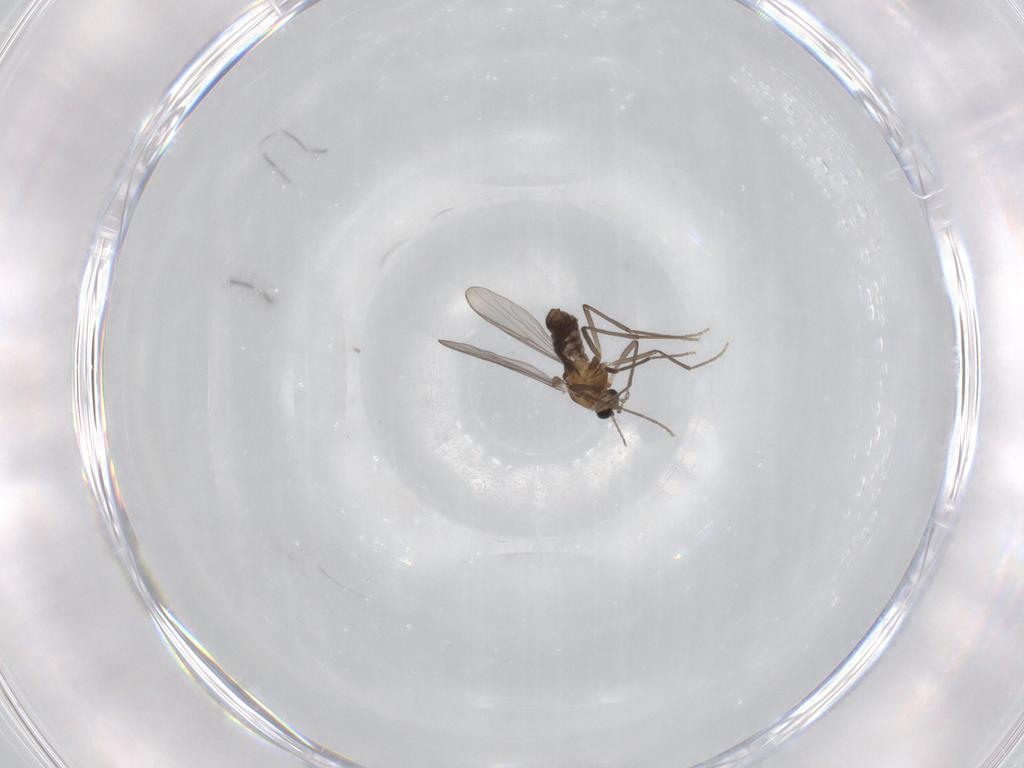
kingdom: Animalia
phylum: Arthropoda
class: Insecta
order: Diptera
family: Chironomidae
